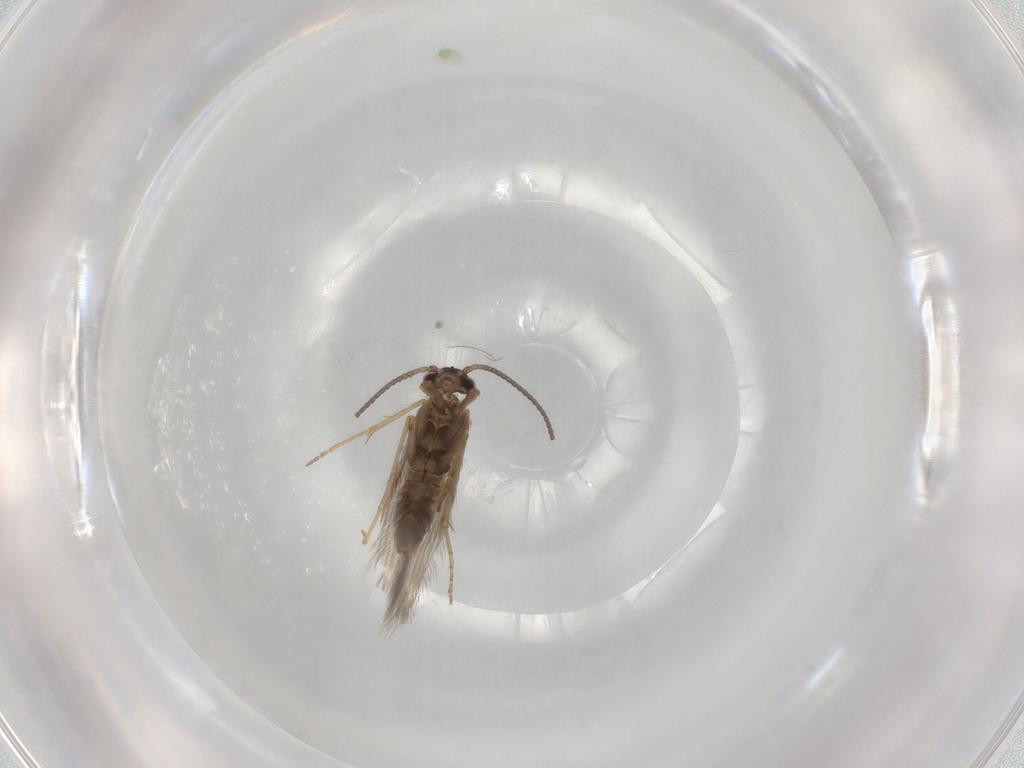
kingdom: Animalia
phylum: Arthropoda
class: Insecta
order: Trichoptera
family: Hydroptilidae
